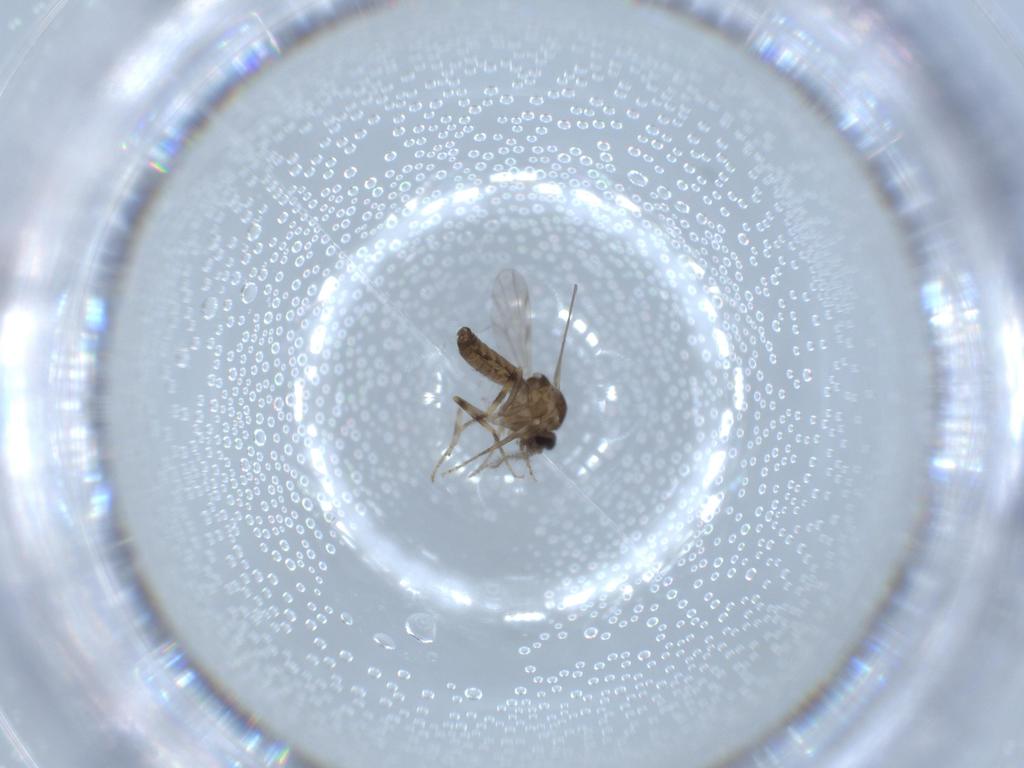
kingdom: Animalia
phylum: Arthropoda
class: Insecta
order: Diptera
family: Ceratopogonidae
